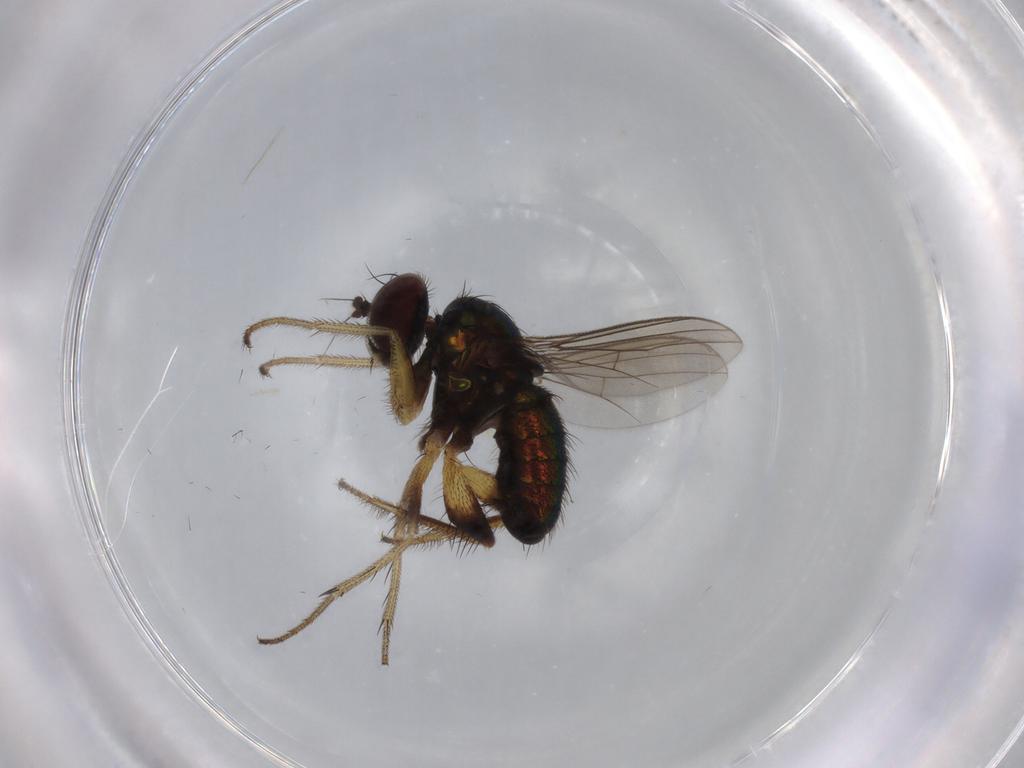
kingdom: Animalia
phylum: Arthropoda
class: Insecta
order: Diptera
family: Dolichopodidae
